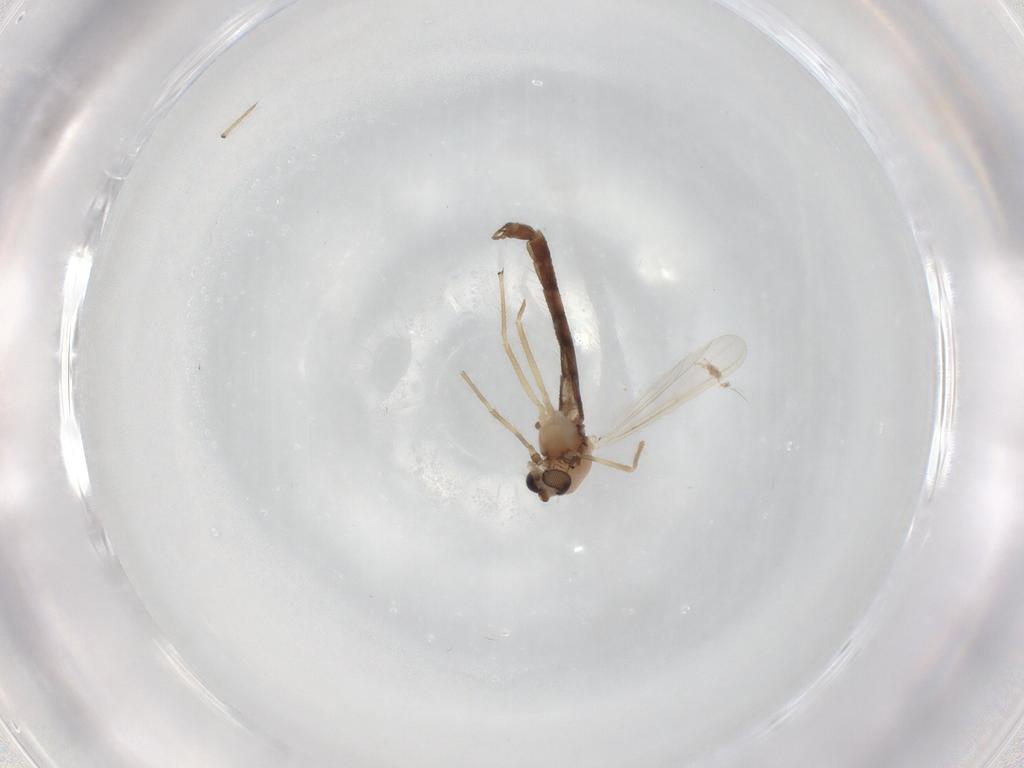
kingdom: Animalia
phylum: Arthropoda
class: Insecta
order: Diptera
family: Chironomidae
